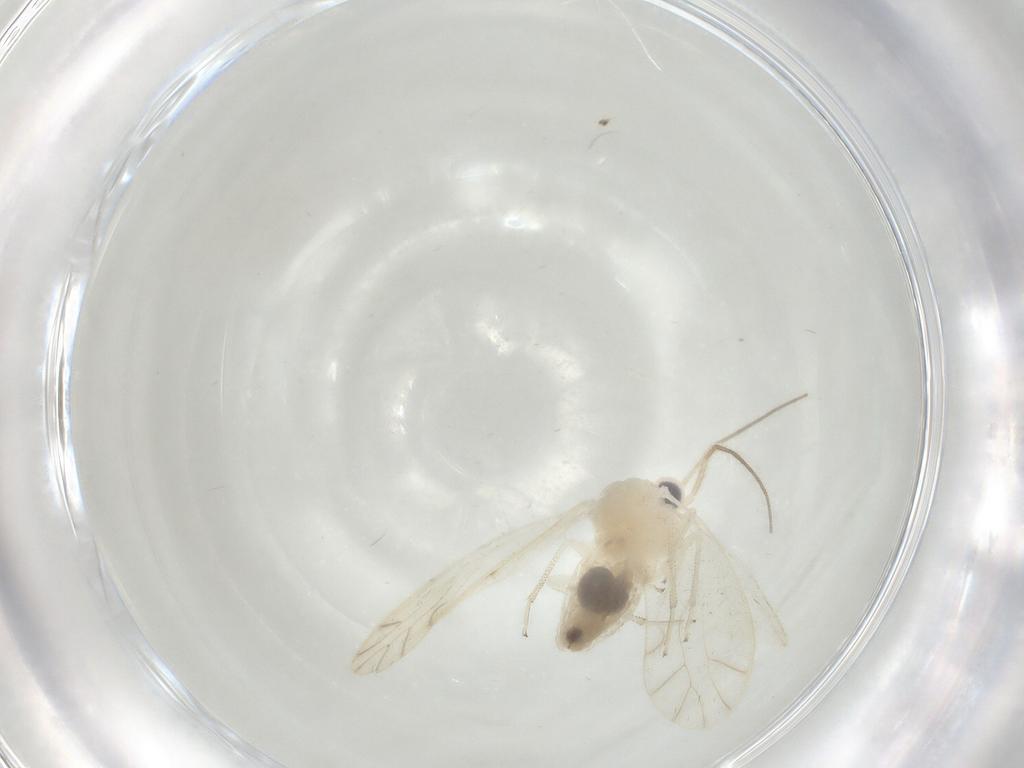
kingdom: Animalia
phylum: Arthropoda
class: Insecta
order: Psocodea
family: Caeciliusidae
